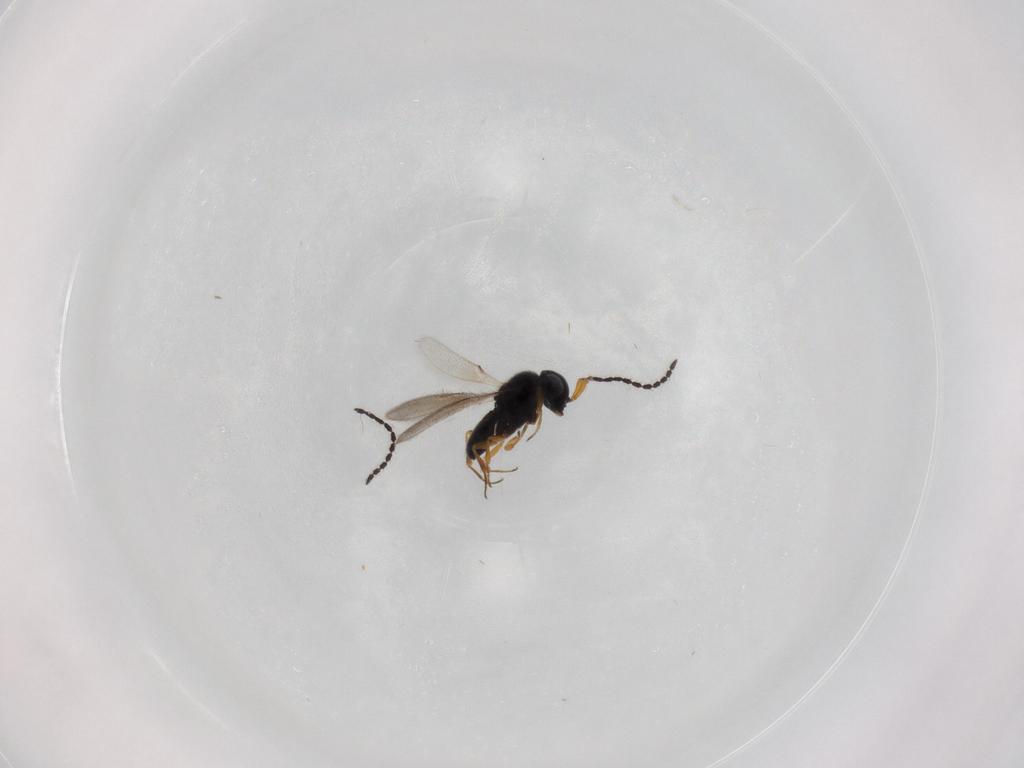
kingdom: Animalia
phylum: Arthropoda
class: Insecta
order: Hymenoptera
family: Scelionidae
